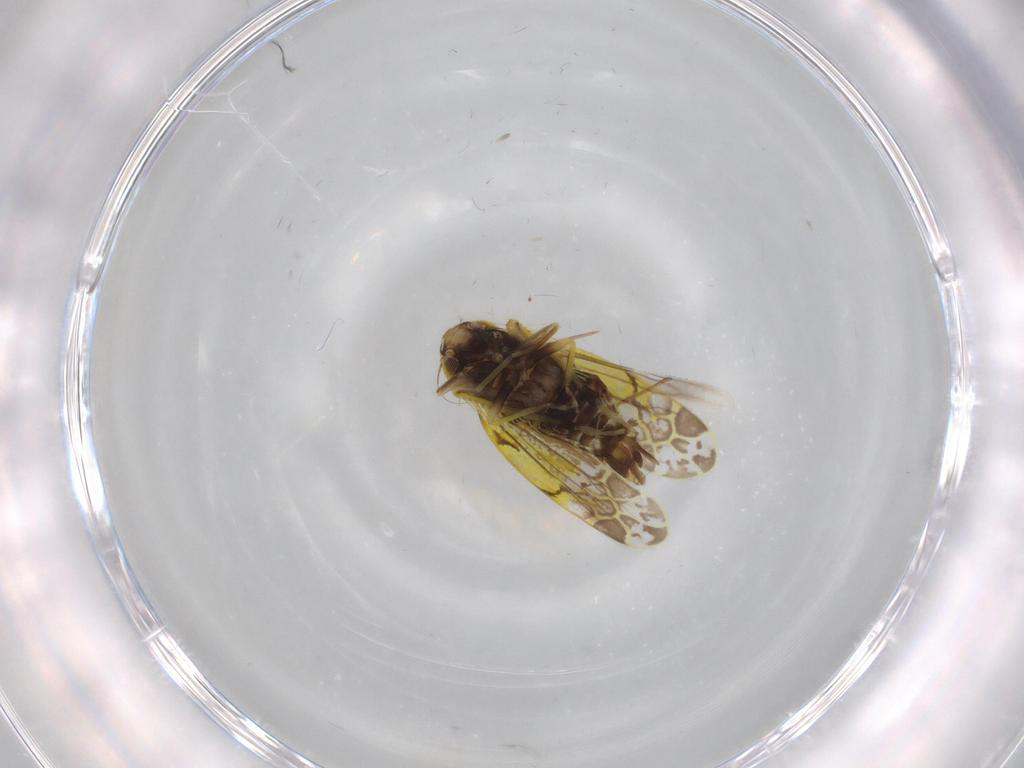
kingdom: Animalia
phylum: Arthropoda
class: Insecta
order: Hemiptera
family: Cicadellidae
